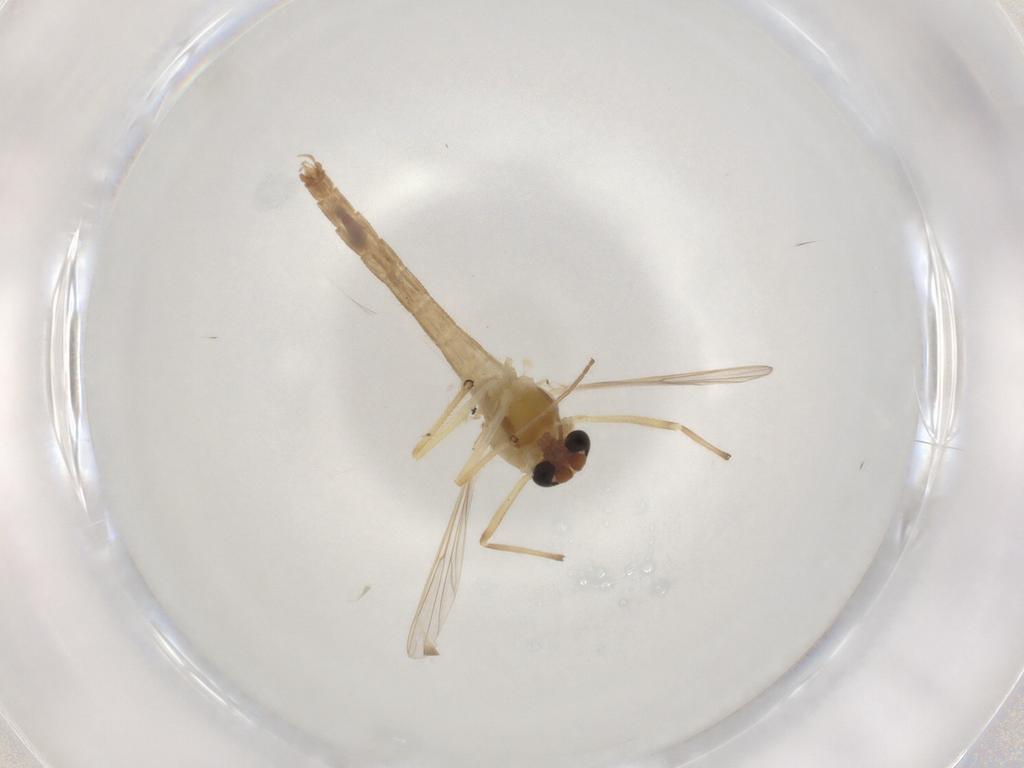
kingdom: Animalia
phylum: Arthropoda
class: Insecta
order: Diptera
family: Chironomidae
